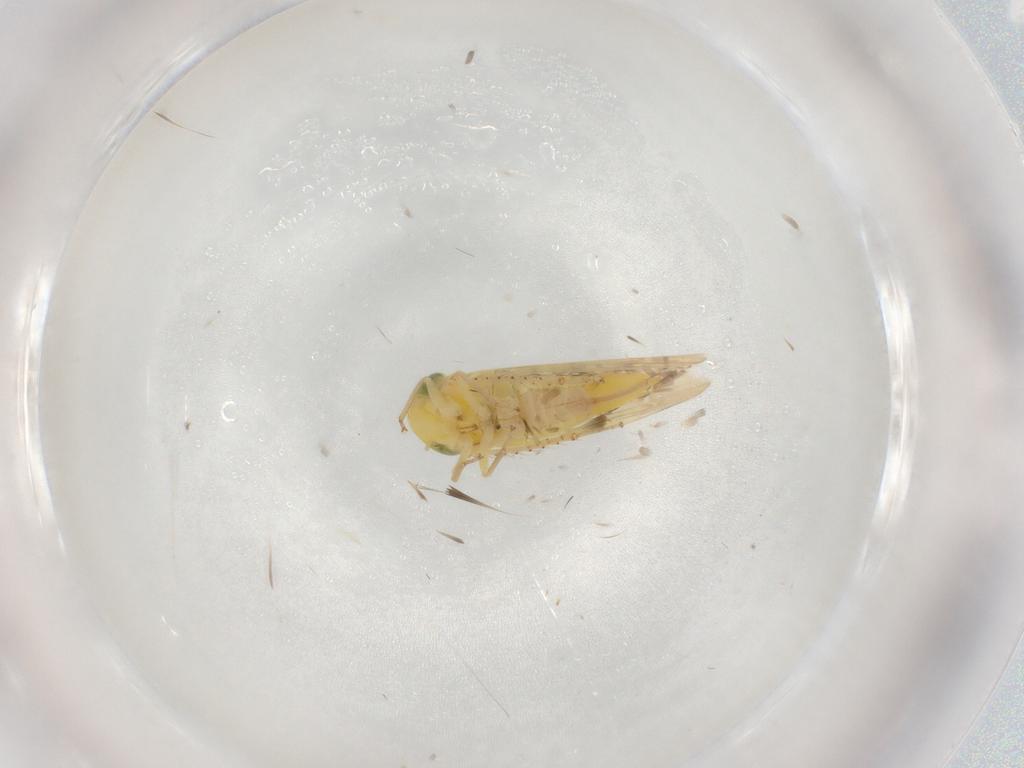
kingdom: Animalia
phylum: Arthropoda
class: Insecta
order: Hemiptera
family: Cicadellidae
